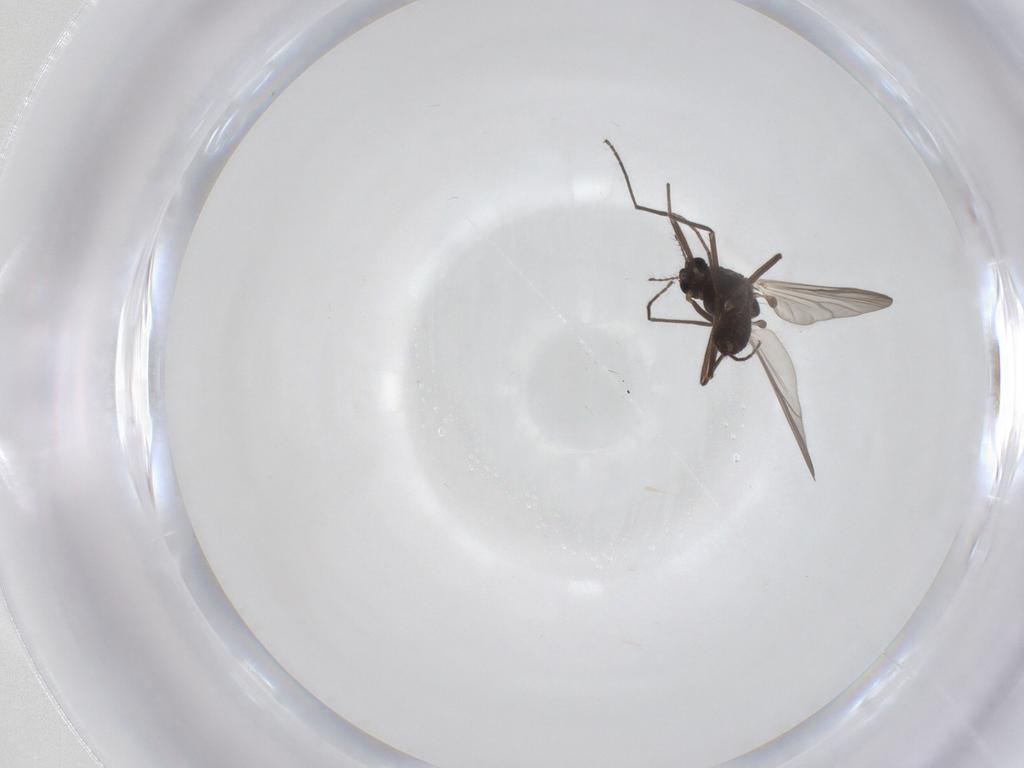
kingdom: Animalia
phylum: Arthropoda
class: Insecta
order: Diptera
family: Chironomidae
